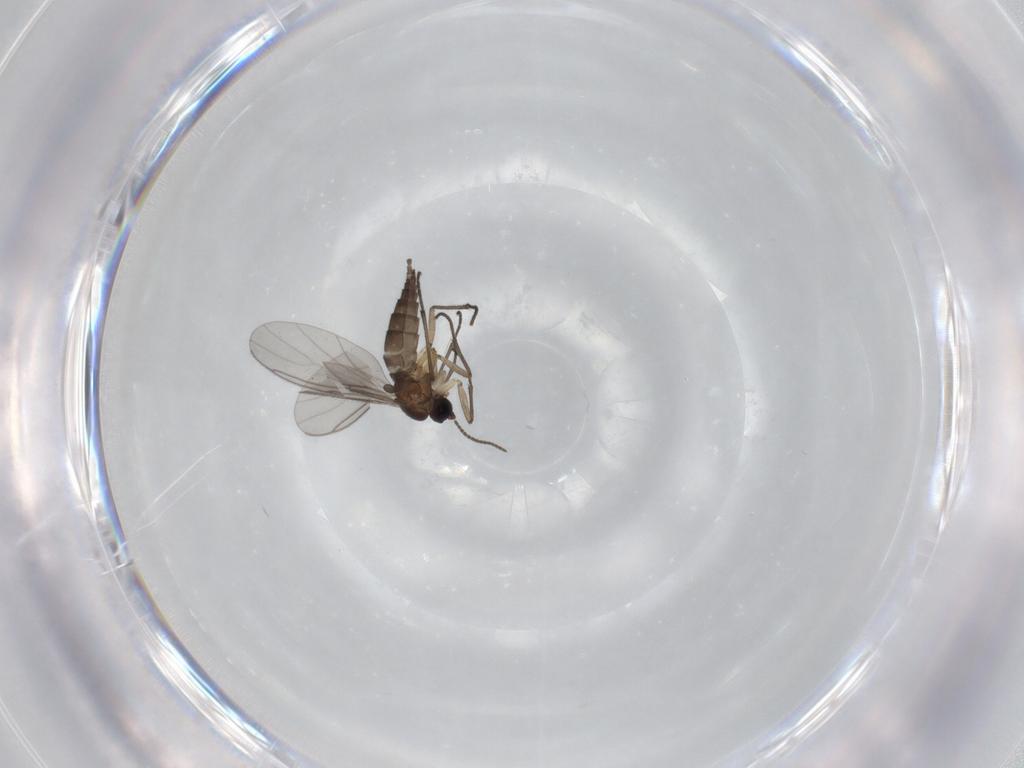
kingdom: Animalia
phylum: Arthropoda
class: Insecta
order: Diptera
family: Sciaridae
